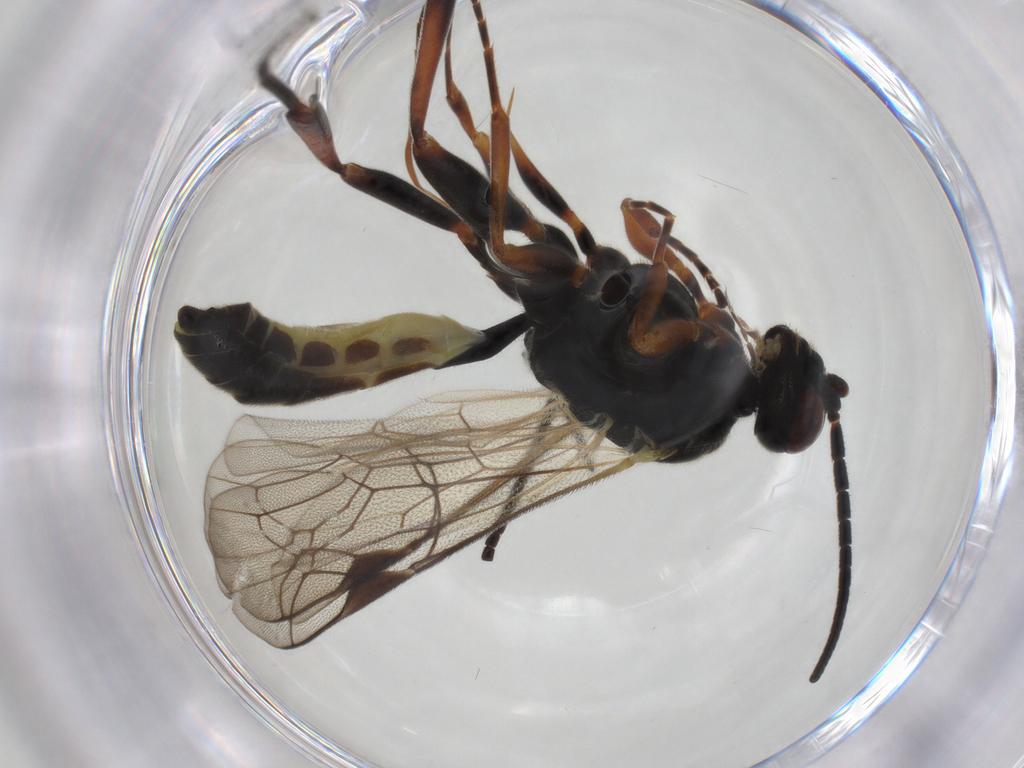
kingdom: Animalia
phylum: Arthropoda
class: Insecta
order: Hymenoptera
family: Ichneumonidae
